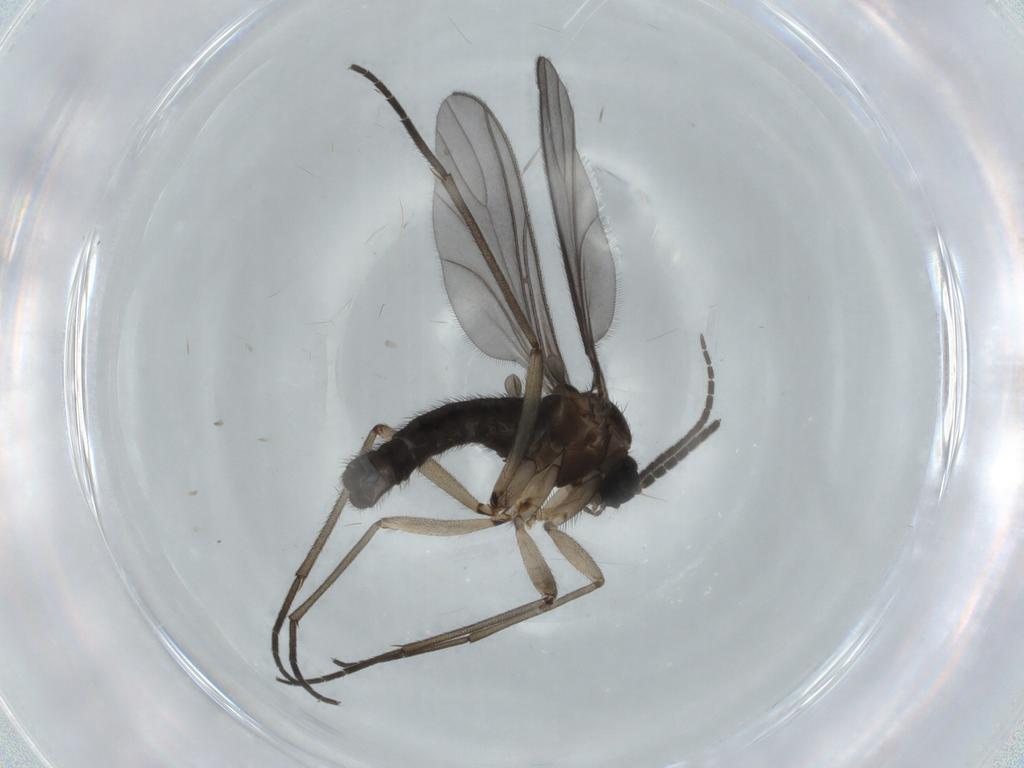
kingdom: Animalia
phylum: Arthropoda
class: Insecta
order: Diptera
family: Sciaridae
